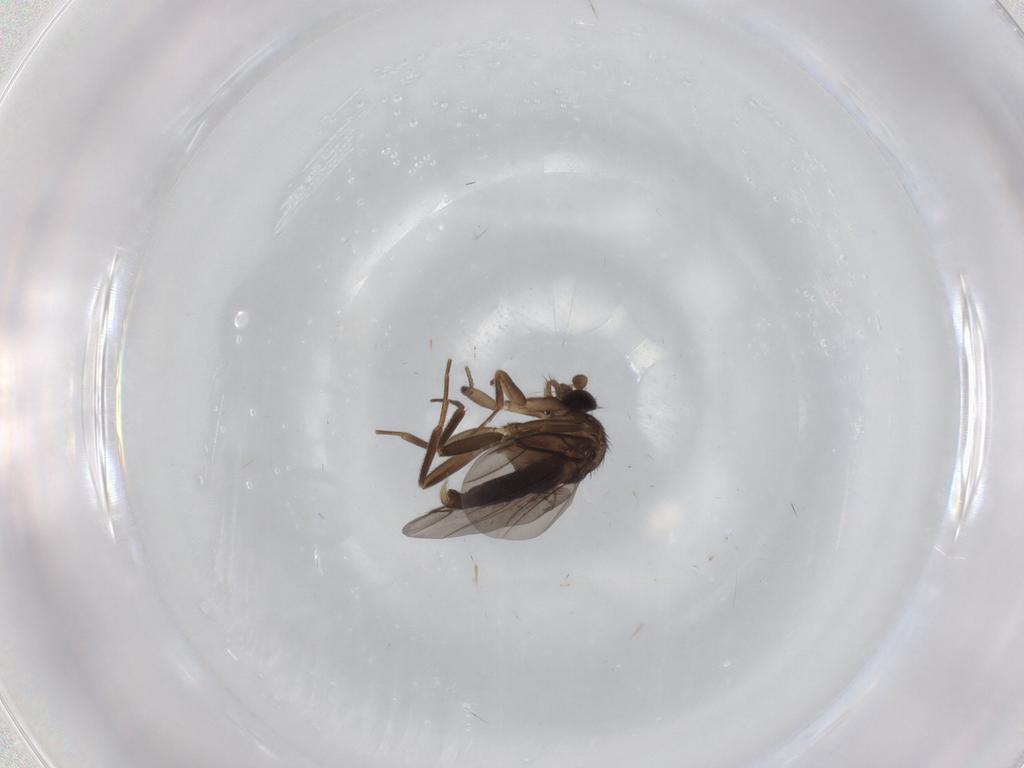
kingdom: Animalia
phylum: Arthropoda
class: Insecta
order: Diptera
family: Cecidomyiidae
